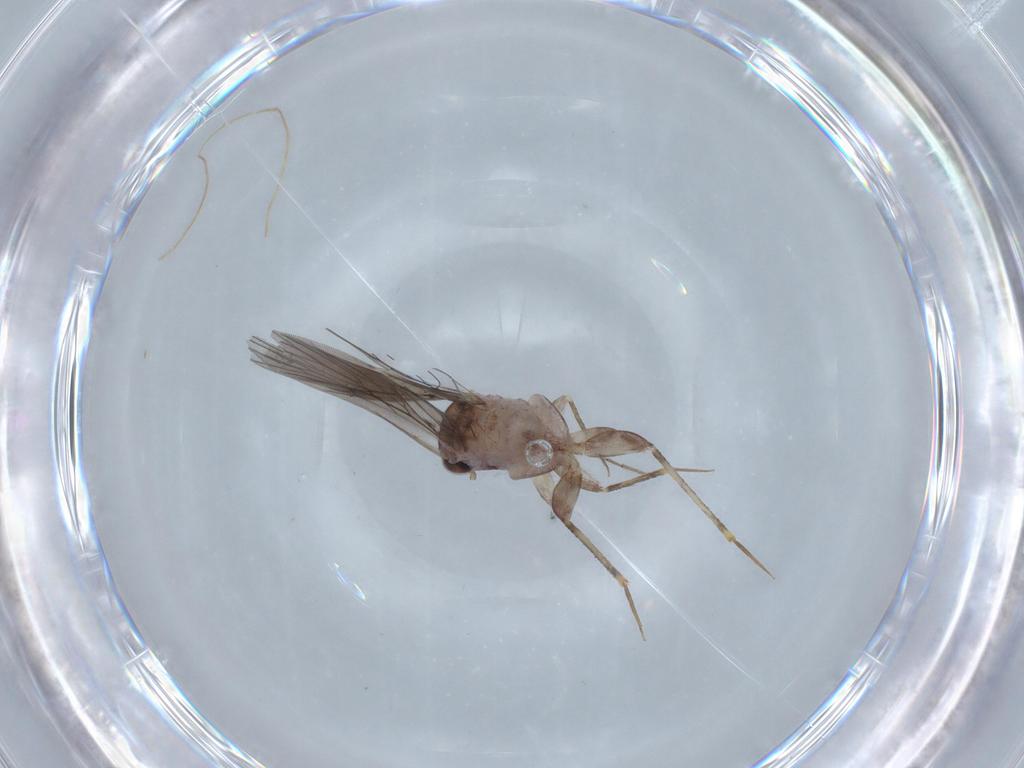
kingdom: Animalia
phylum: Arthropoda
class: Insecta
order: Psocodea
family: Lepidopsocidae
